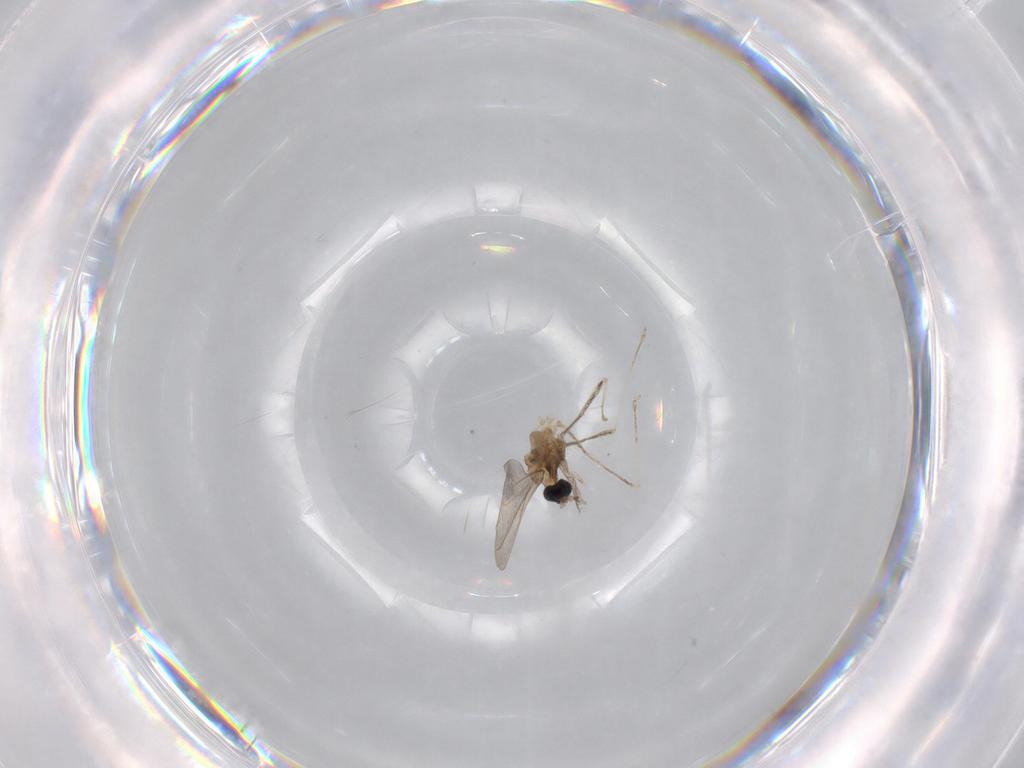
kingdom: Animalia
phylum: Arthropoda
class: Insecta
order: Diptera
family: Cecidomyiidae
